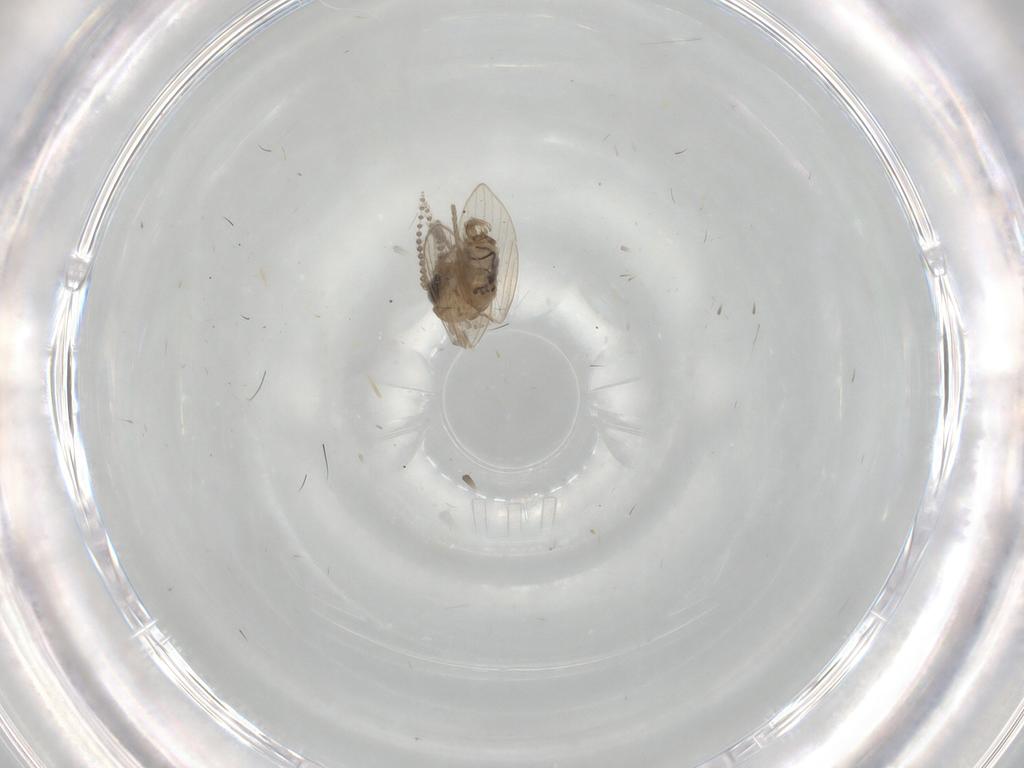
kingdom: Animalia
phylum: Arthropoda
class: Insecta
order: Diptera
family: Psychodidae
